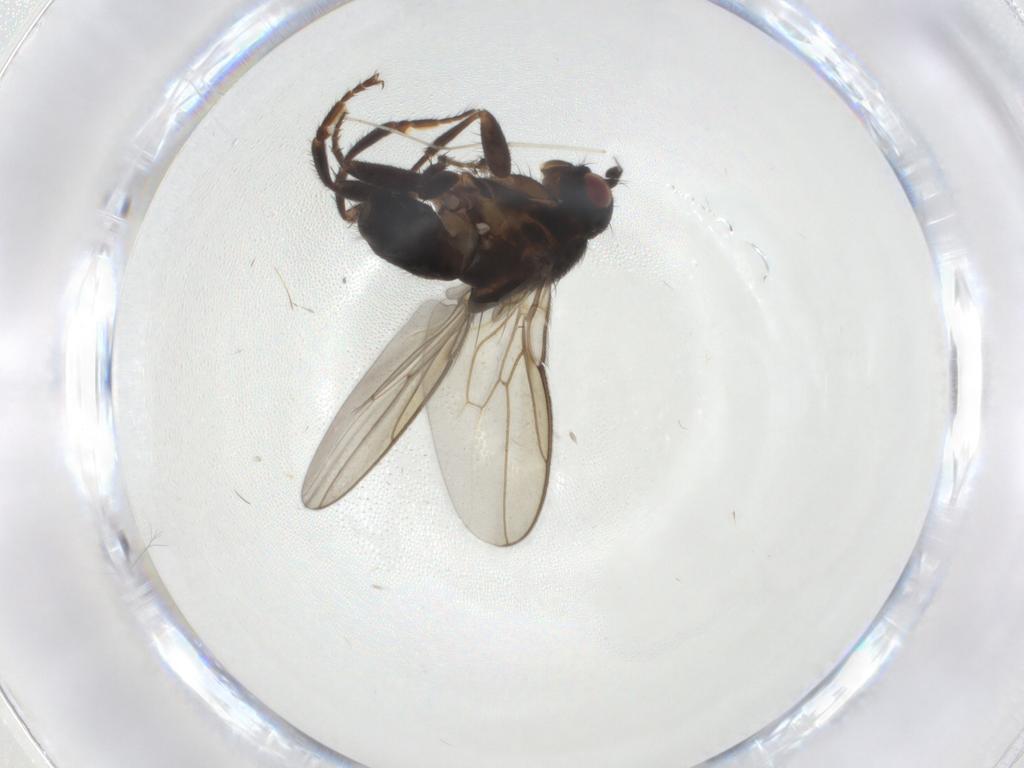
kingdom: Animalia
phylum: Arthropoda
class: Insecta
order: Diptera
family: Sphaeroceridae
